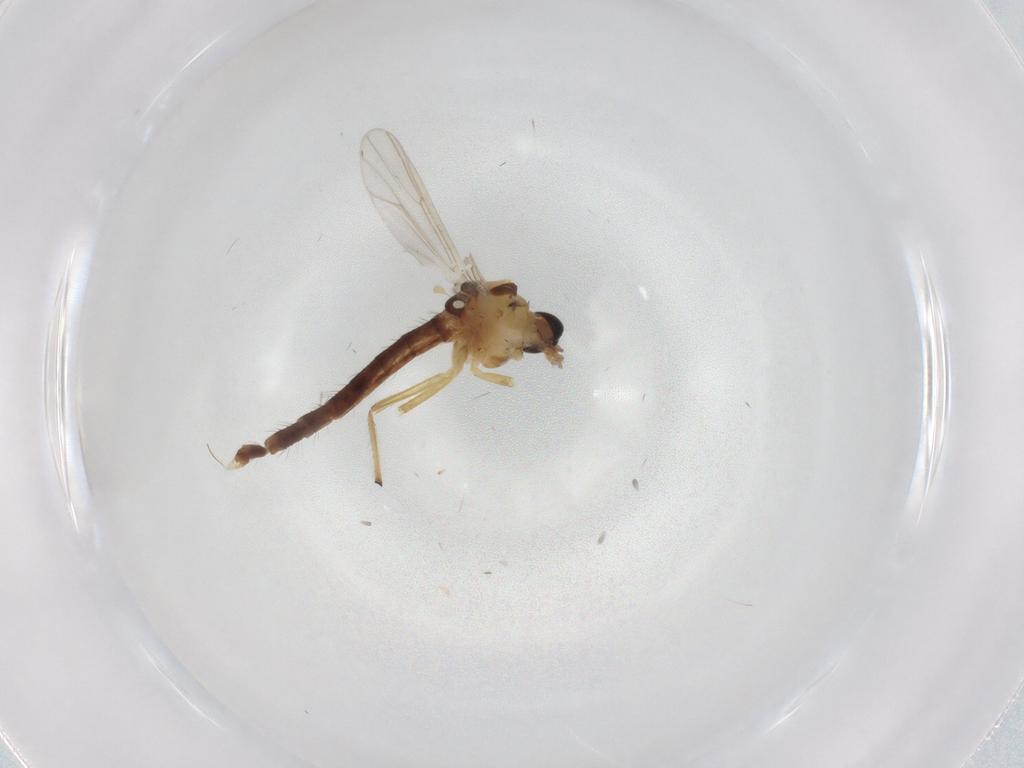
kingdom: Animalia
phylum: Arthropoda
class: Insecta
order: Diptera
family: Chironomidae
